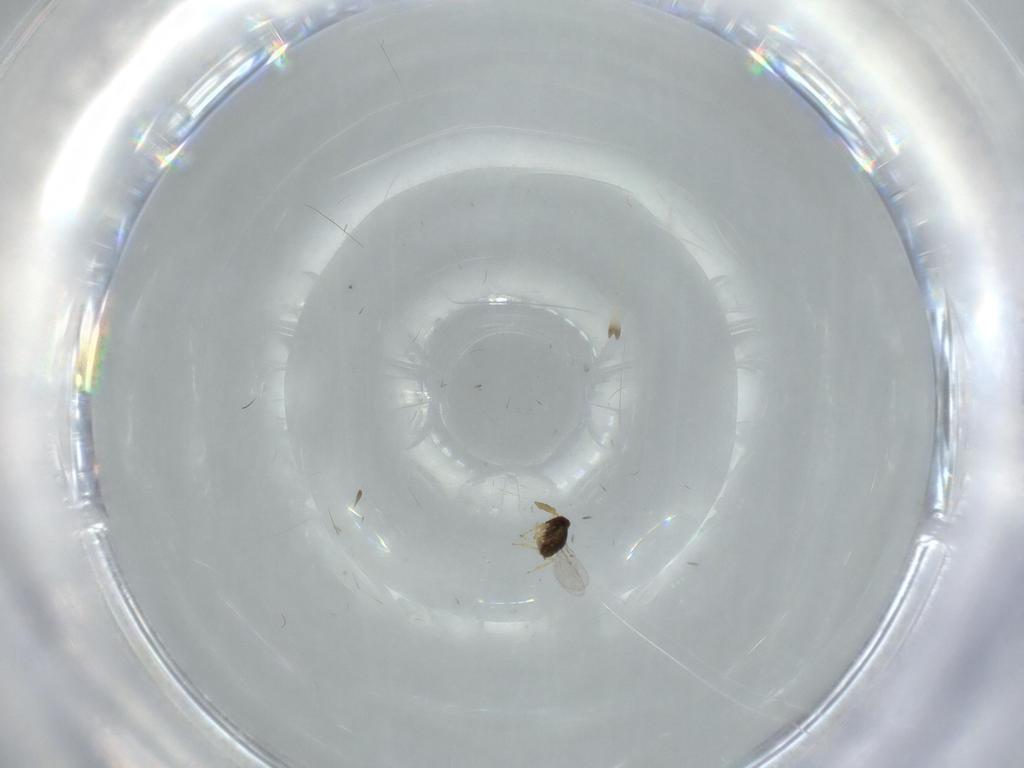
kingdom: Animalia
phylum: Arthropoda
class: Insecta
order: Hymenoptera
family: Encyrtidae
